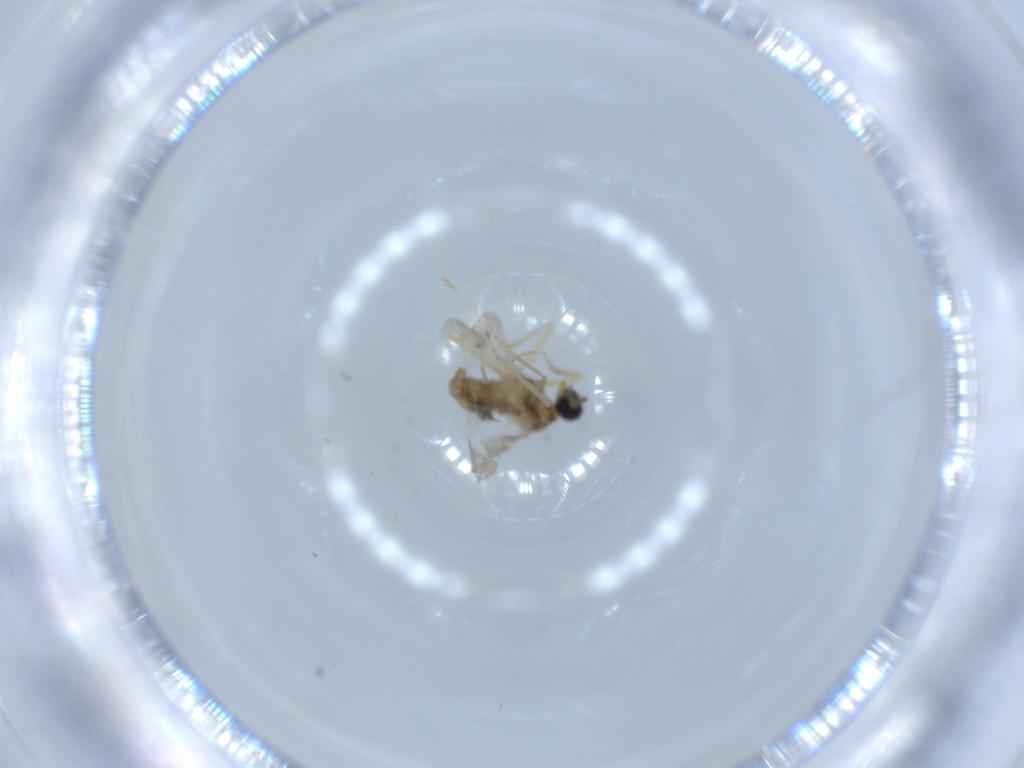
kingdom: Animalia
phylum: Arthropoda
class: Insecta
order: Diptera
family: Cecidomyiidae
